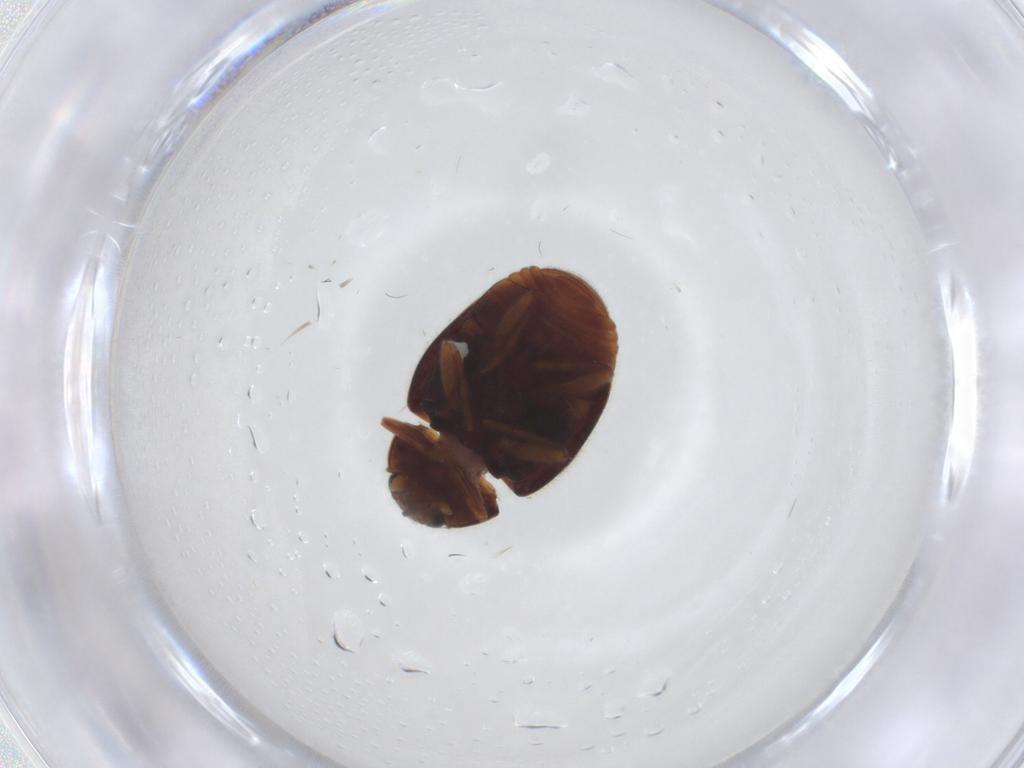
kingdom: Animalia
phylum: Arthropoda
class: Insecta
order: Coleoptera
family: Coccinellidae
